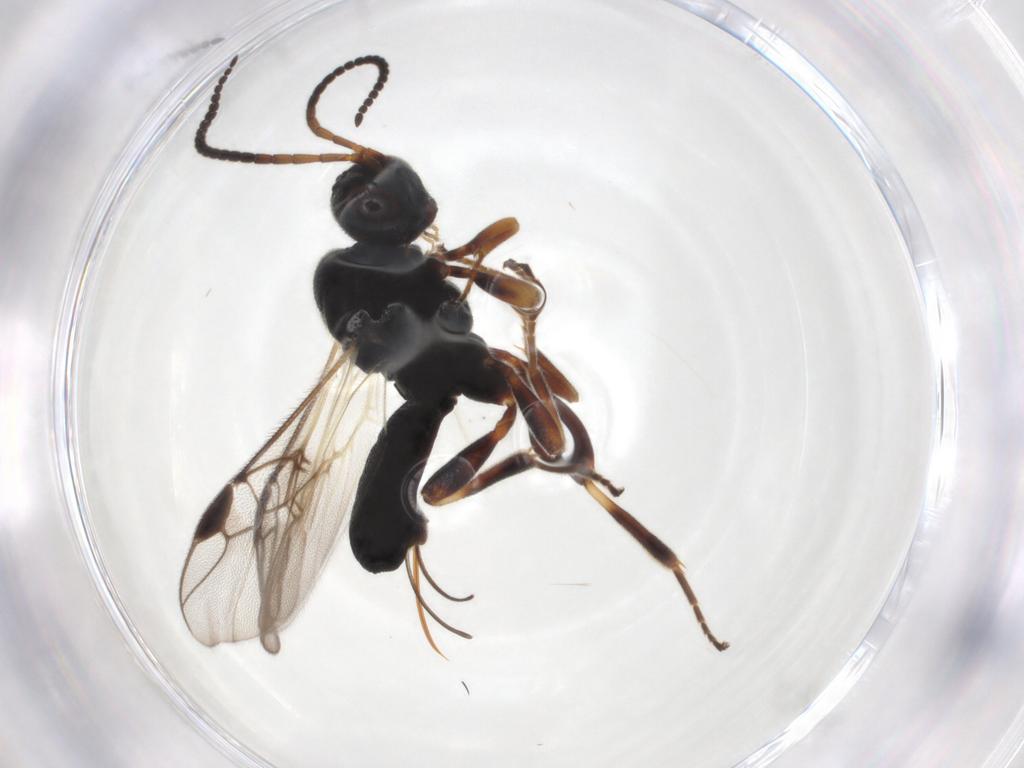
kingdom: Animalia
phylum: Arthropoda
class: Insecta
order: Hymenoptera
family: Braconidae
